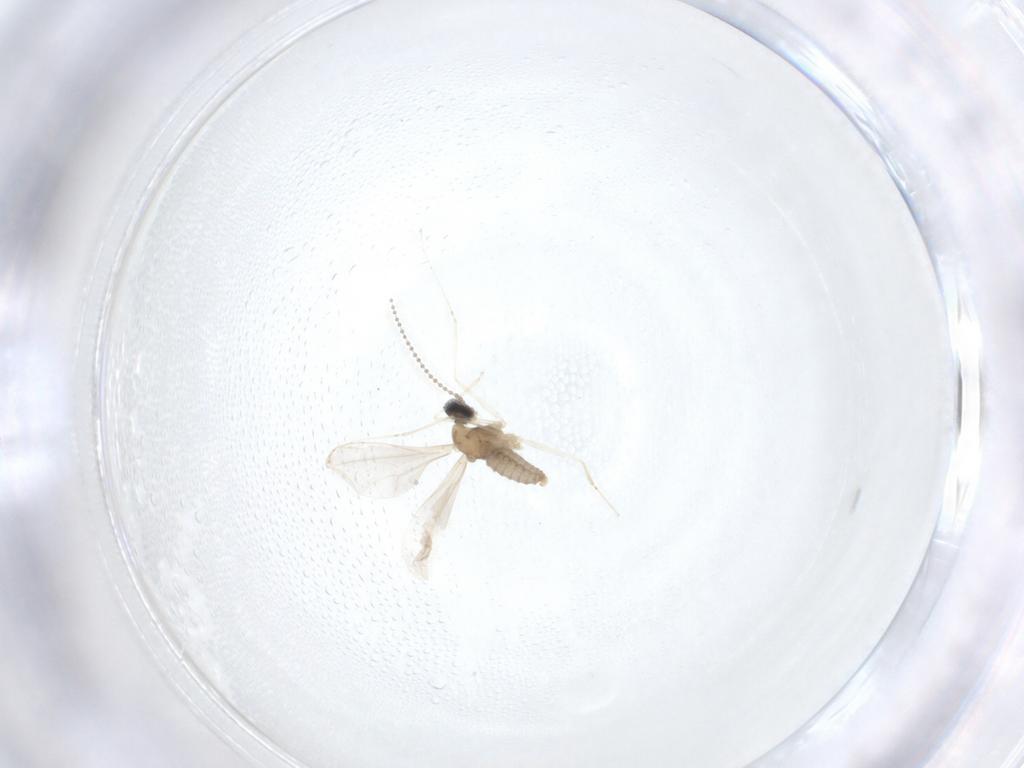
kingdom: Animalia
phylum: Arthropoda
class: Insecta
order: Diptera
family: Cecidomyiidae
